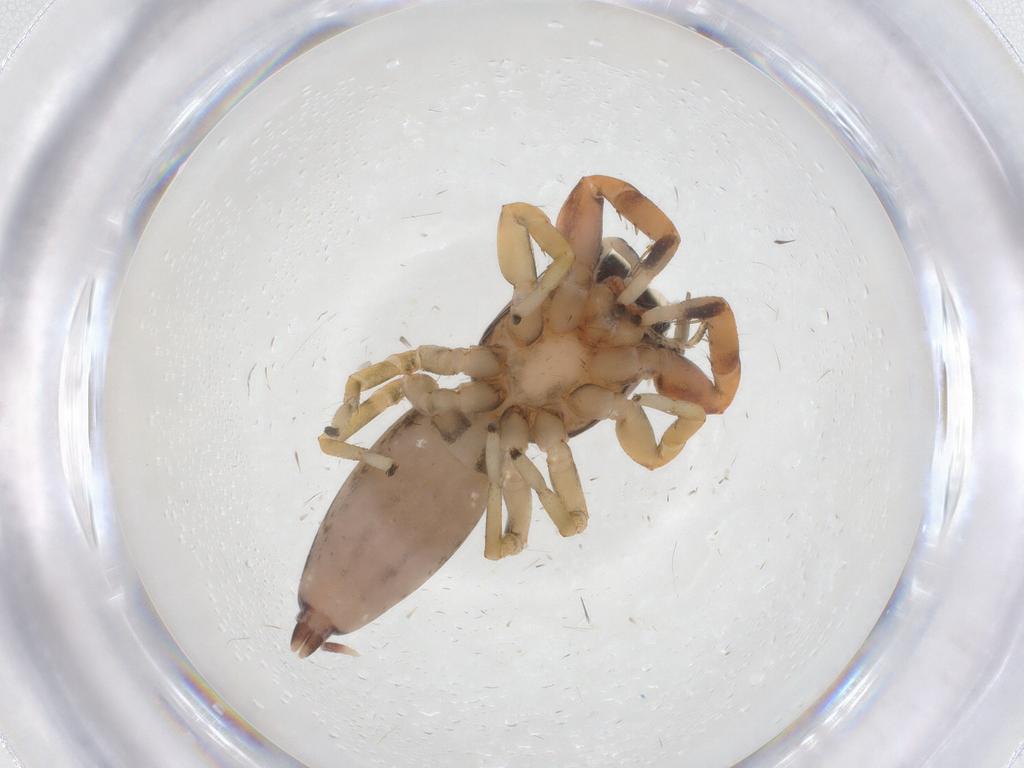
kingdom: Animalia
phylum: Arthropoda
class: Arachnida
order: Araneae
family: Salticidae
